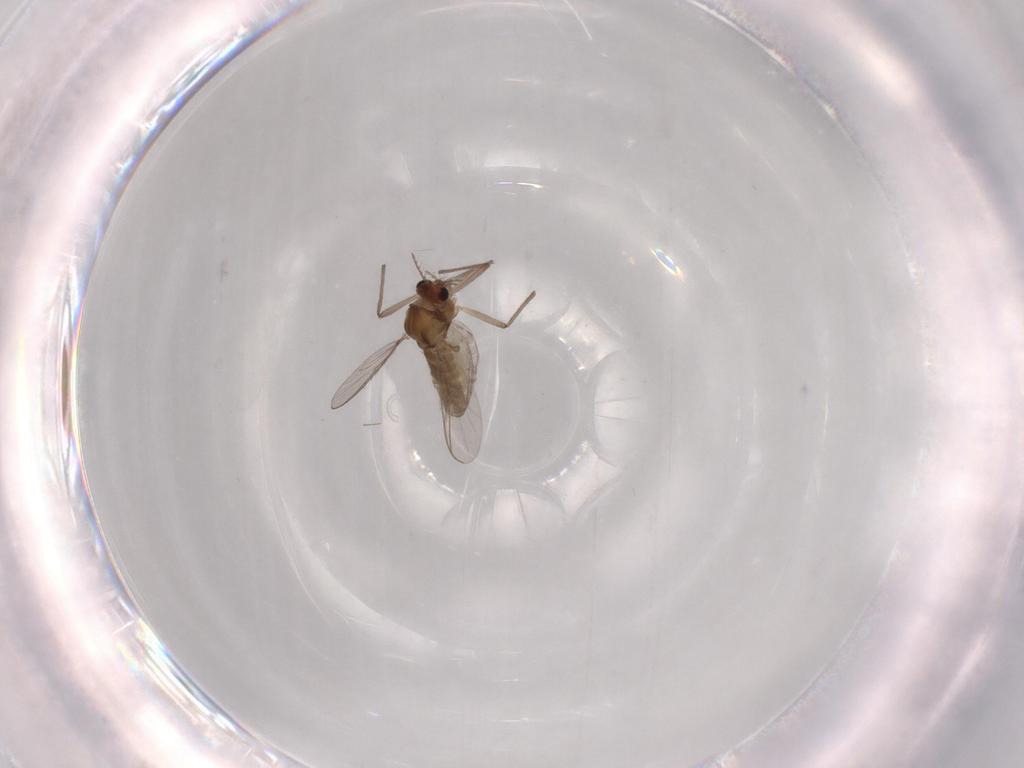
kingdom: Animalia
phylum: Arthropoda
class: Insecta
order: Diptera
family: Chironomidae
